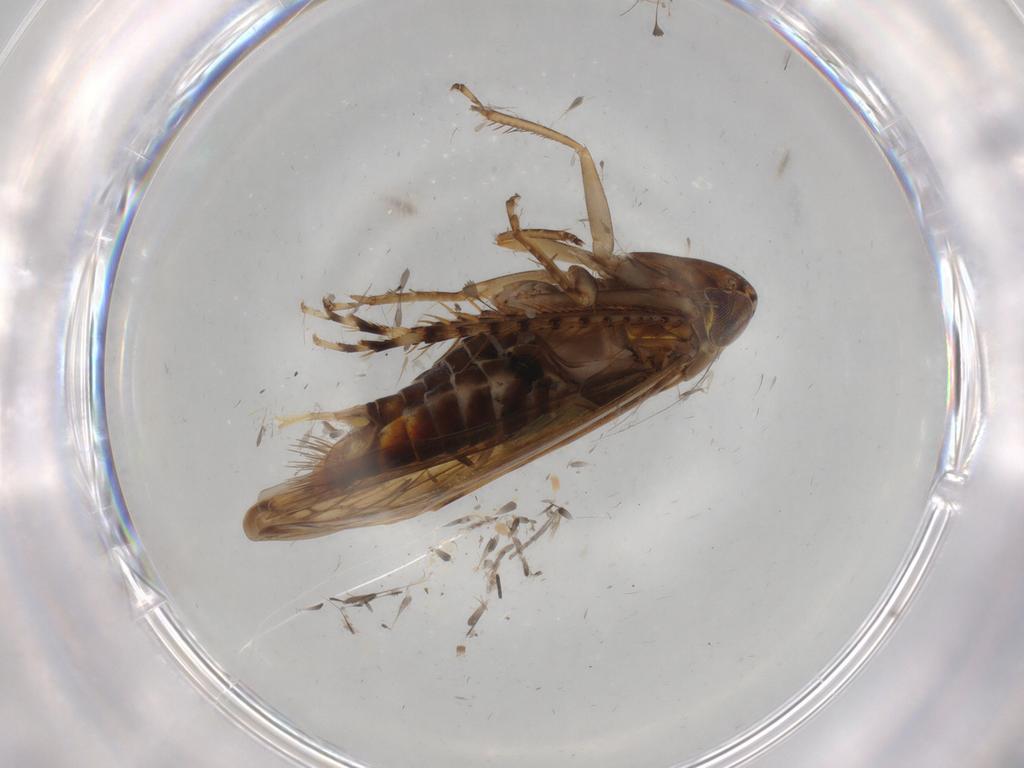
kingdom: Animalia
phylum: Arthropoda
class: Insecta
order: Hemiptera
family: Cicadellidae
